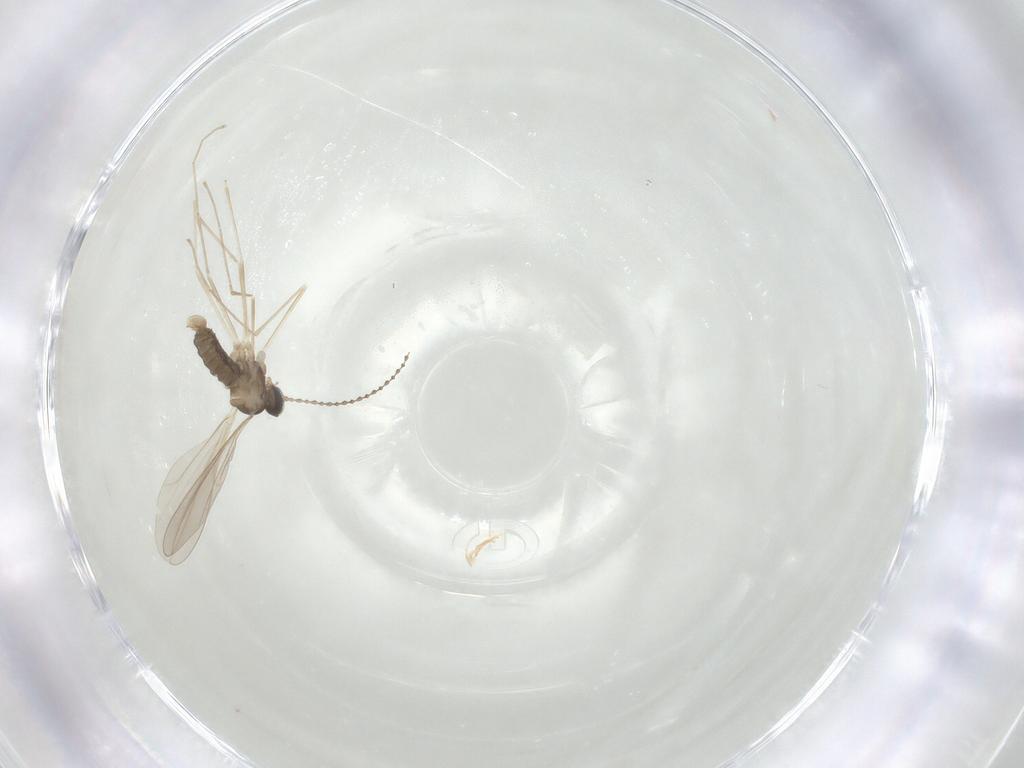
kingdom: Animalia
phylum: Arthropoda
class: Insecta
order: Diptera
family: Cecidomyiidae
